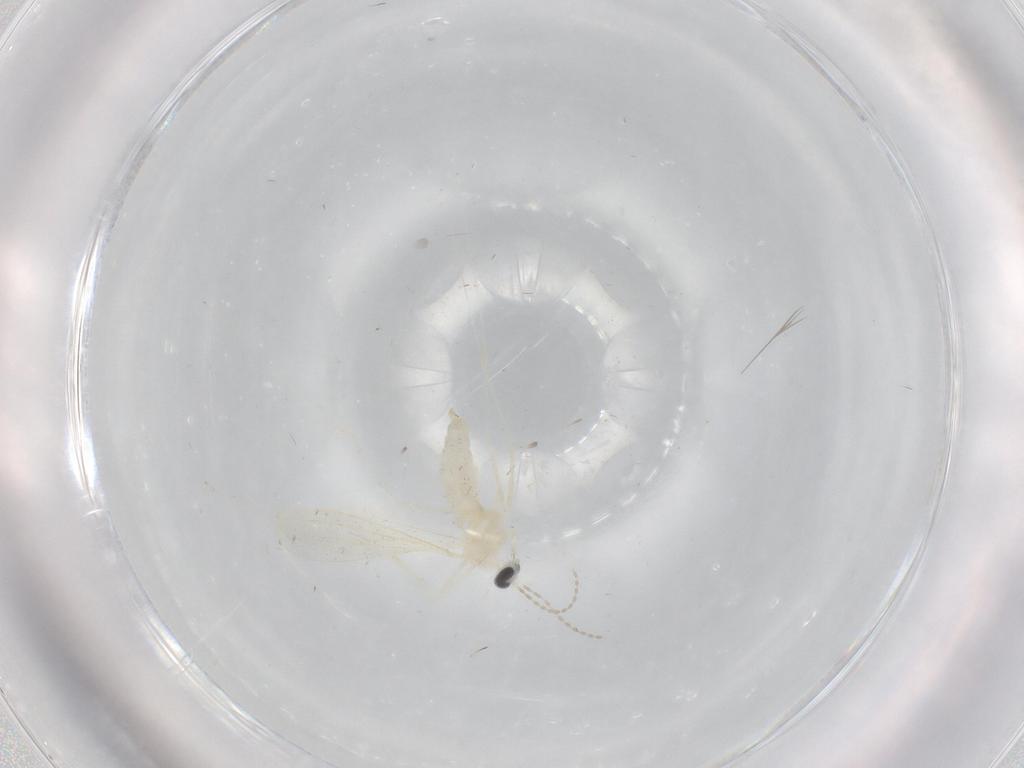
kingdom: Animalia
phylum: Arthropoda
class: Insecta
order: Diptera
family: Cecidomyiidae
